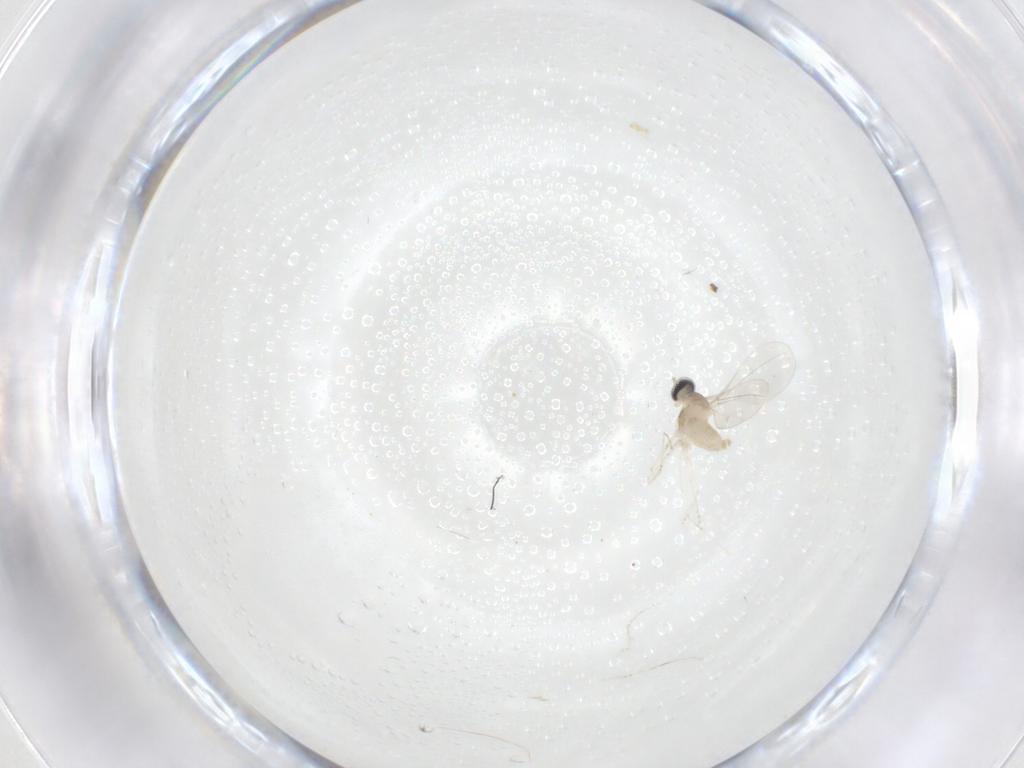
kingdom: Animalia
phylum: Arthropoda
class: Insecta
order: Diptera
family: Cecidomyiidae
